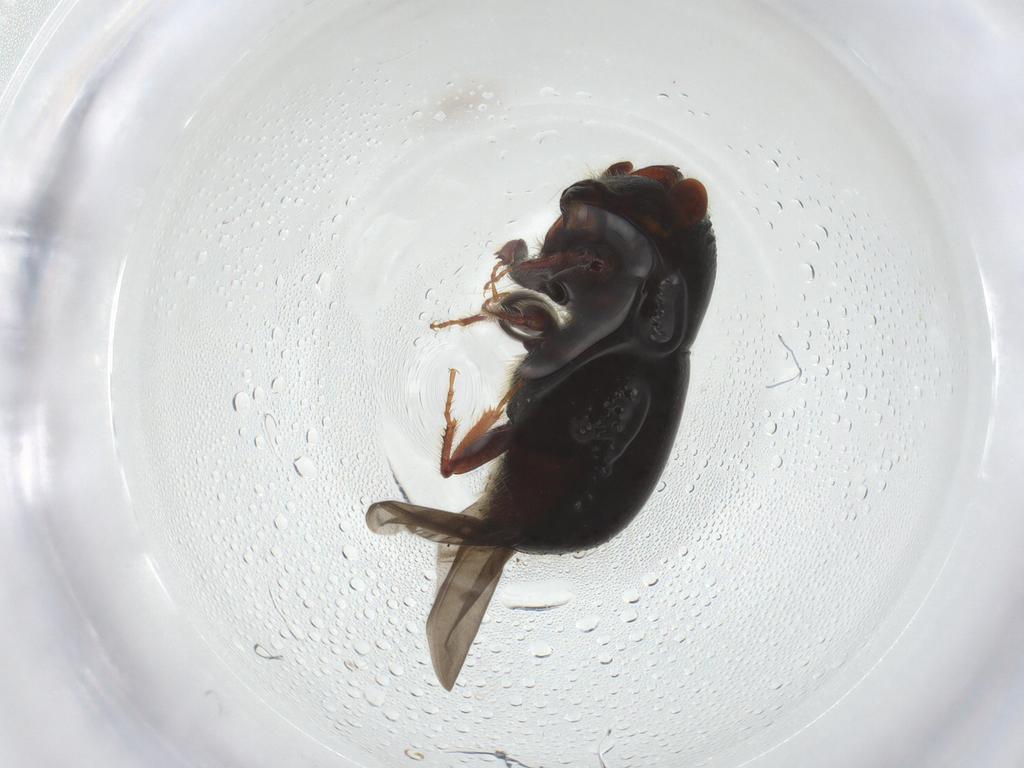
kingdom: Animalia
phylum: Arthropoda
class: Insecta
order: Coleoptera
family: Curculionidae
